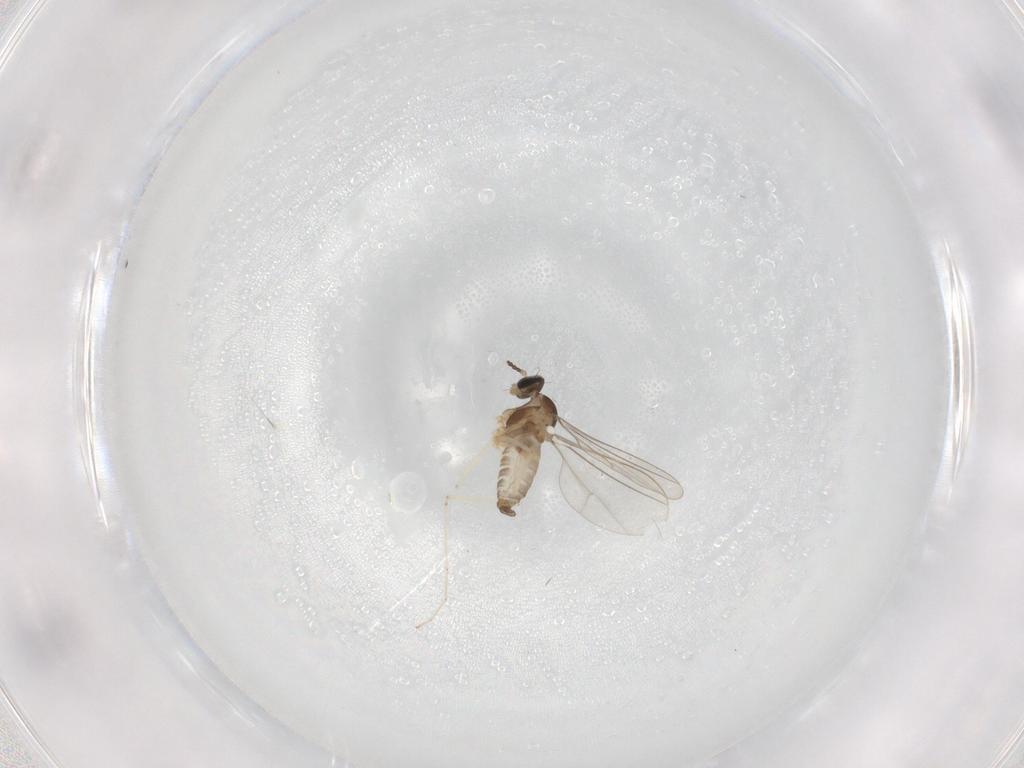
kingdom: Animalia
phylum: Arthropoda
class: Insecta
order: Diptera
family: Cecidomyiidae
